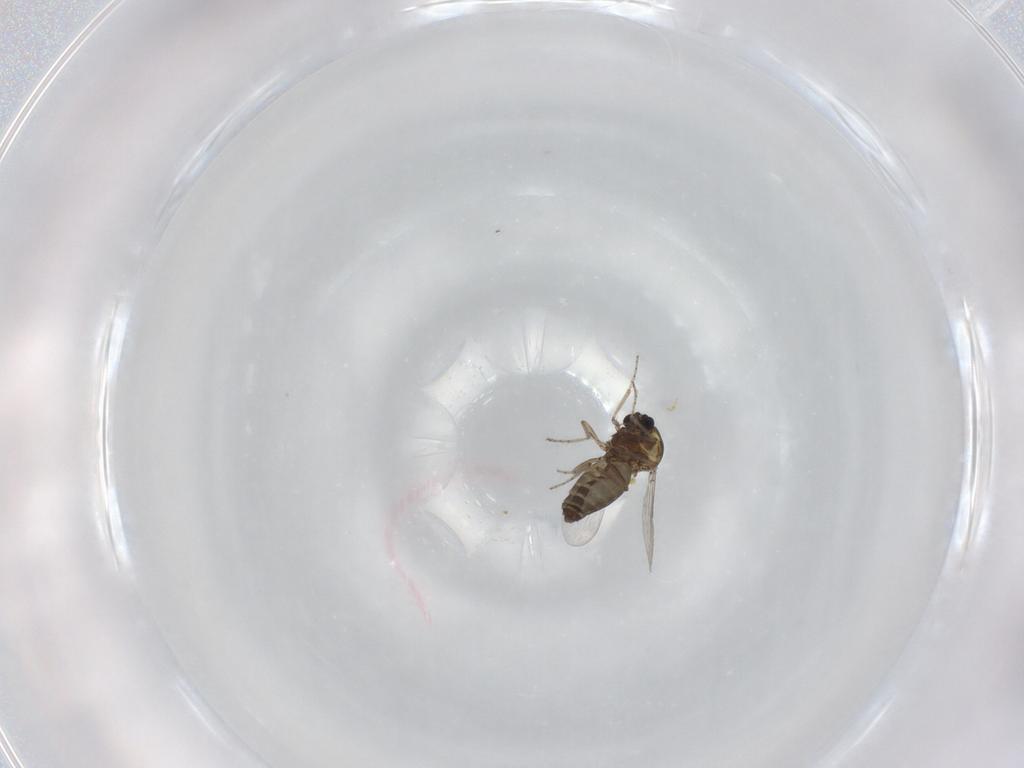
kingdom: Animalia
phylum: Arthropoda
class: Insecta
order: Diptera
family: Ceratopogonidae
